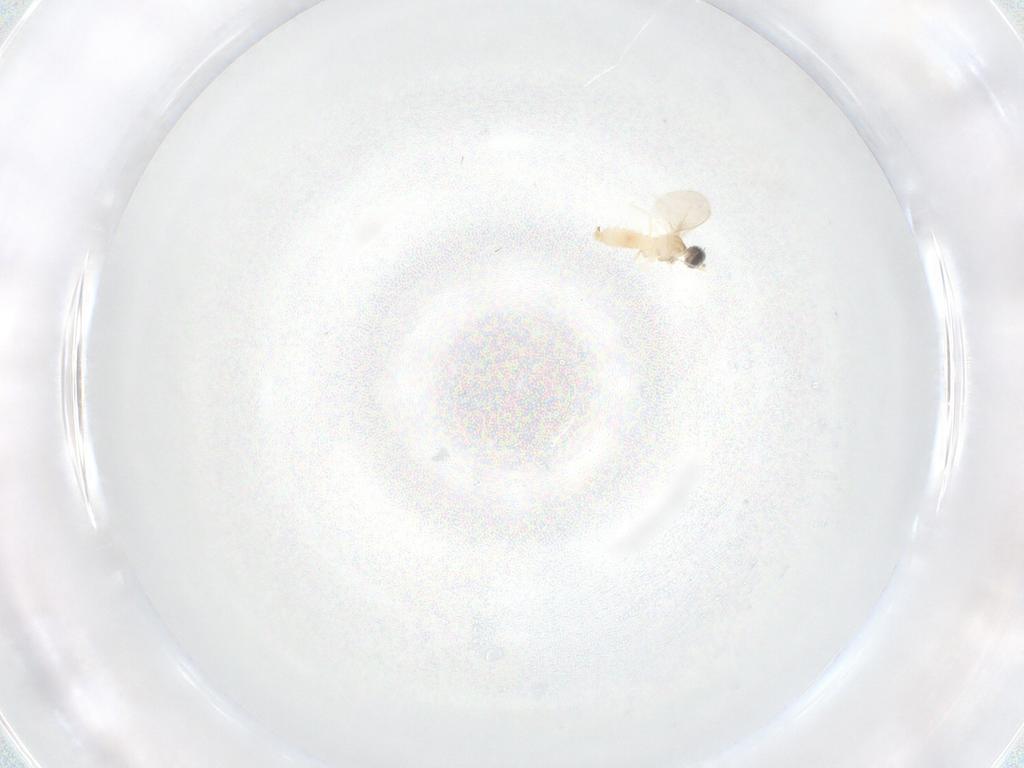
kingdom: Animalia
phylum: Arthropoda
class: Insecta
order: Diptera
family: Cecidomyiidae
